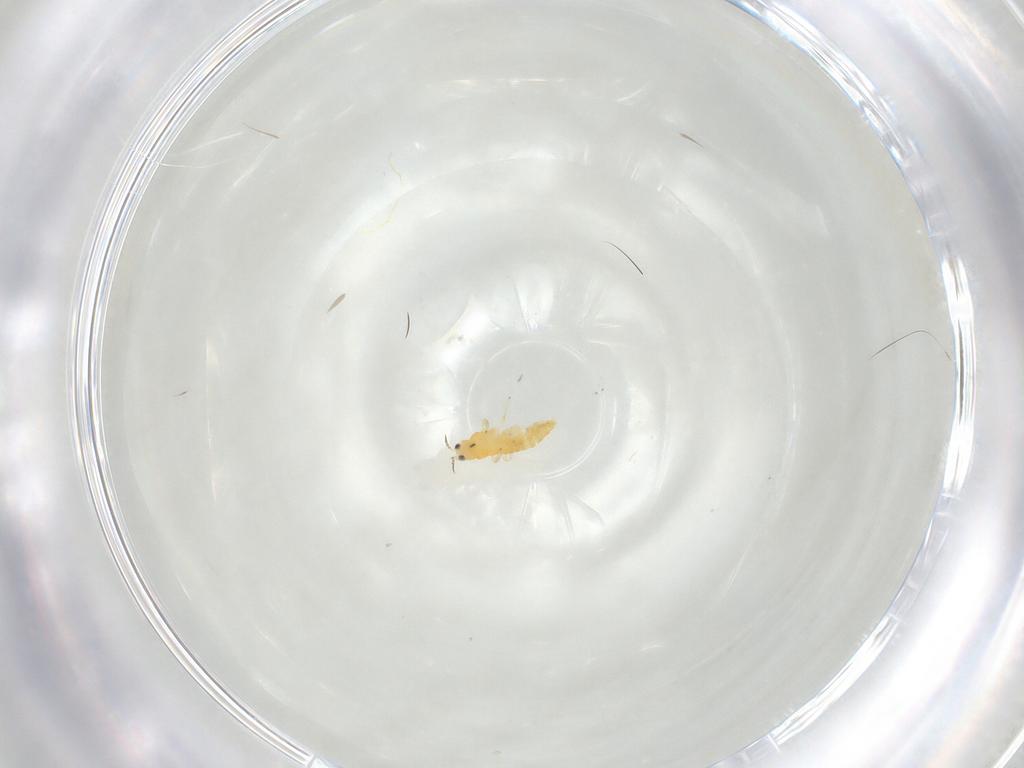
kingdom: Animalia
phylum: Arthropoda
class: Insecta
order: Thysanoptera
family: Thripidae
